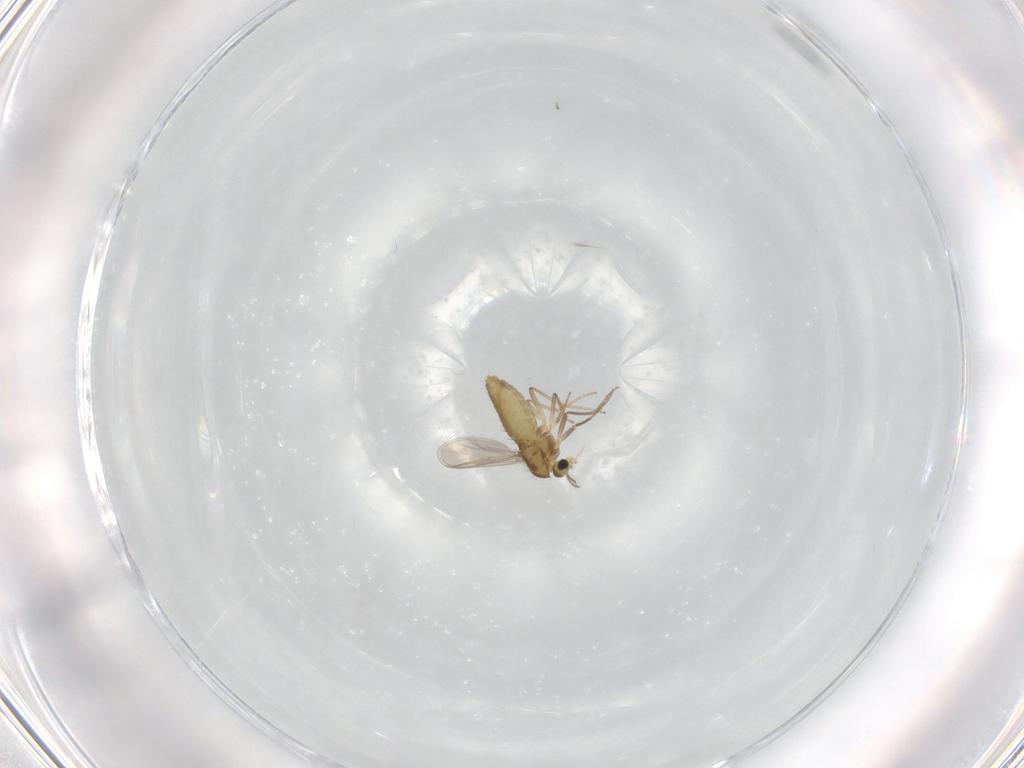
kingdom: Animalia
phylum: Arthropoda
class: Insecta
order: Diptera
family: Chironomidae
